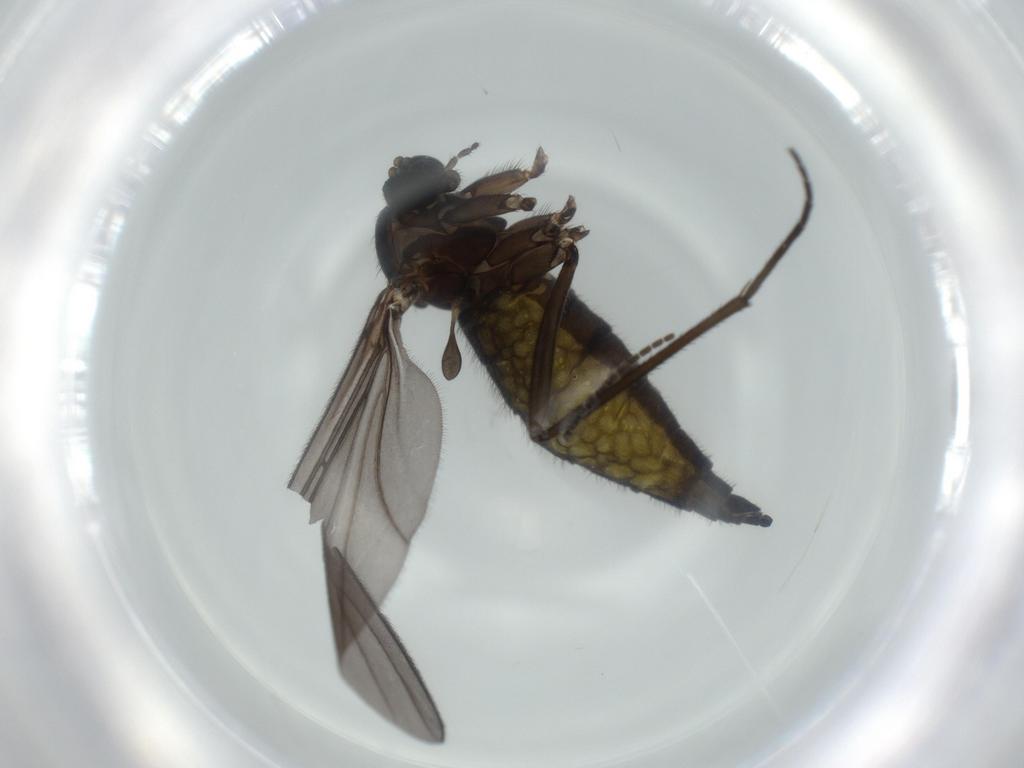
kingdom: Animalia
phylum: Arthropoda
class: Insecta
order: Diptera
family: Sciaridae
